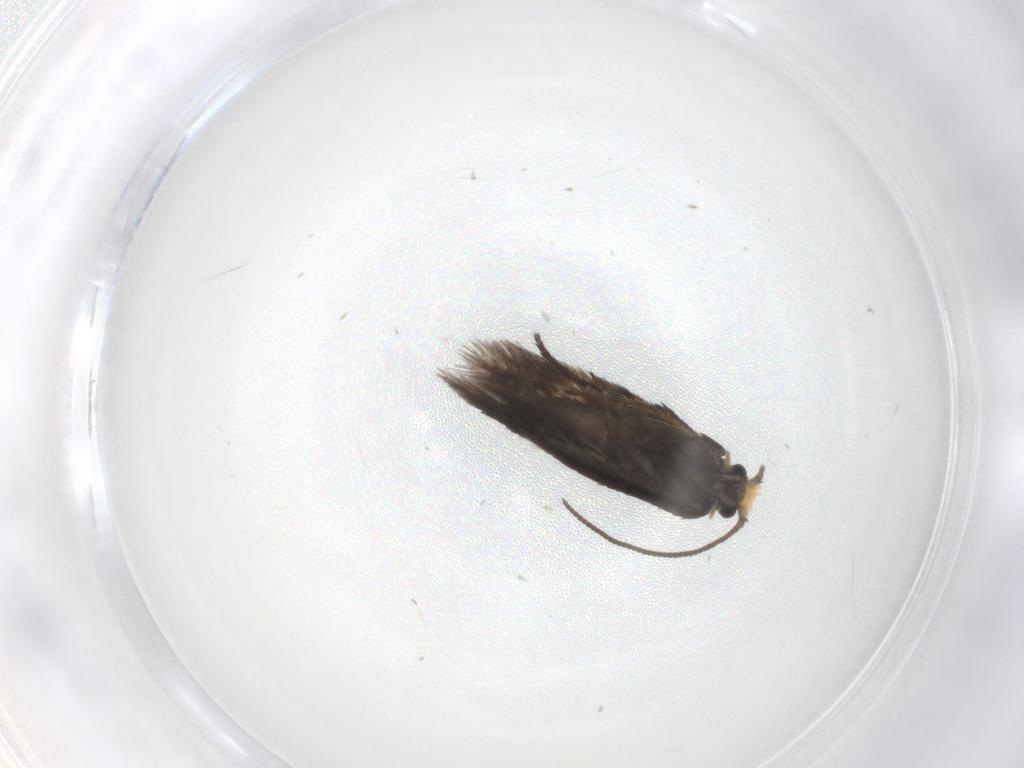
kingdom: Animalia
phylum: Arthropoda
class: Insecta
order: Lepidoptera
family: Nepticulidae
